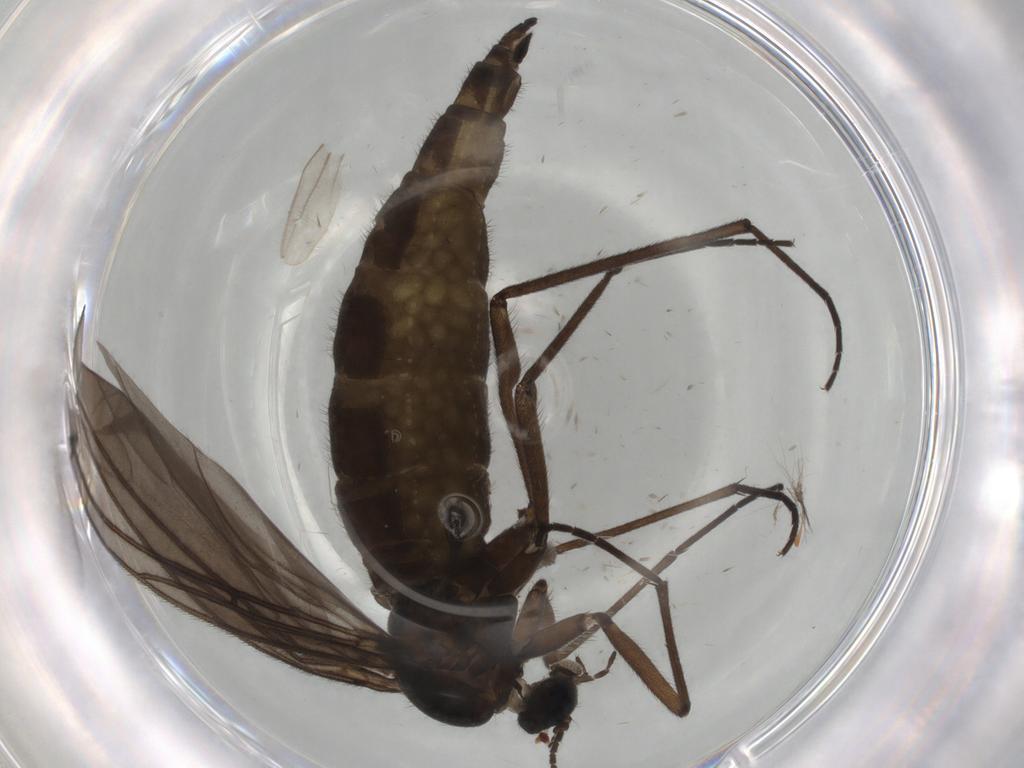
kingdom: Animalia
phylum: Arthropoda
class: Insecta
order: Diptera
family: Sciaridae
